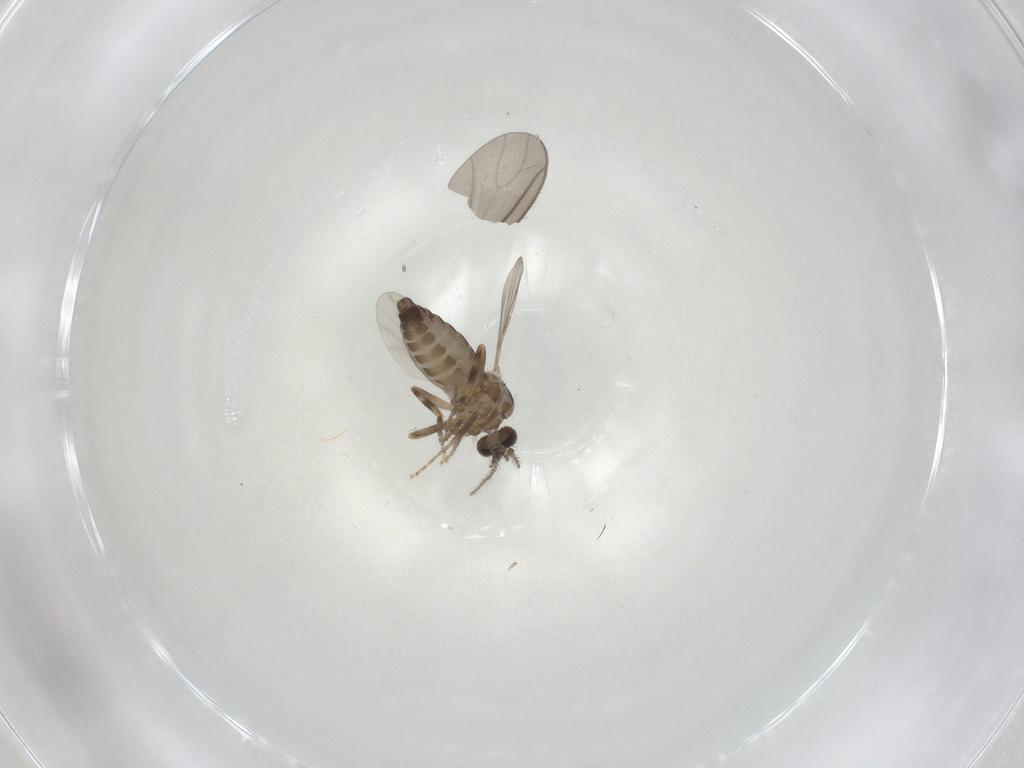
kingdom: Animalia
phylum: Arthropoda
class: Insecta
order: Diptera
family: Ceratopogonidae
